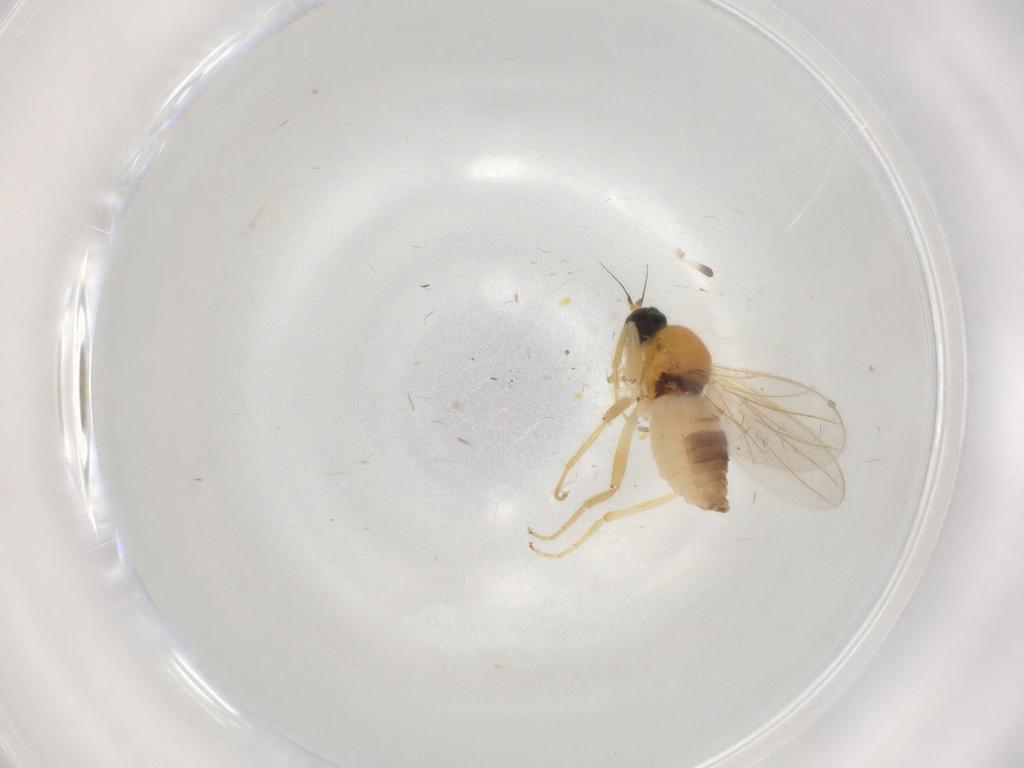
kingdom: Animalia
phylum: Arthropoda
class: Insecta
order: Diptera
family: Hybotidae
